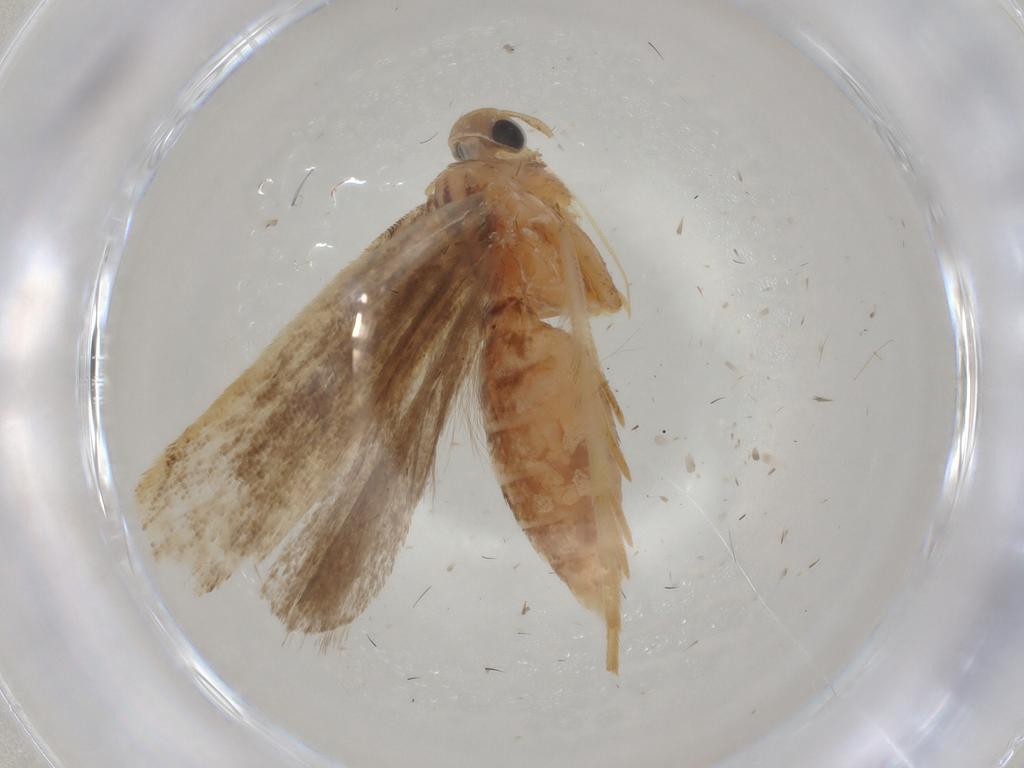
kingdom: Animalia
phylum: Arthropoda
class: Insecta
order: Lepidoptera
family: Gelechiidae
